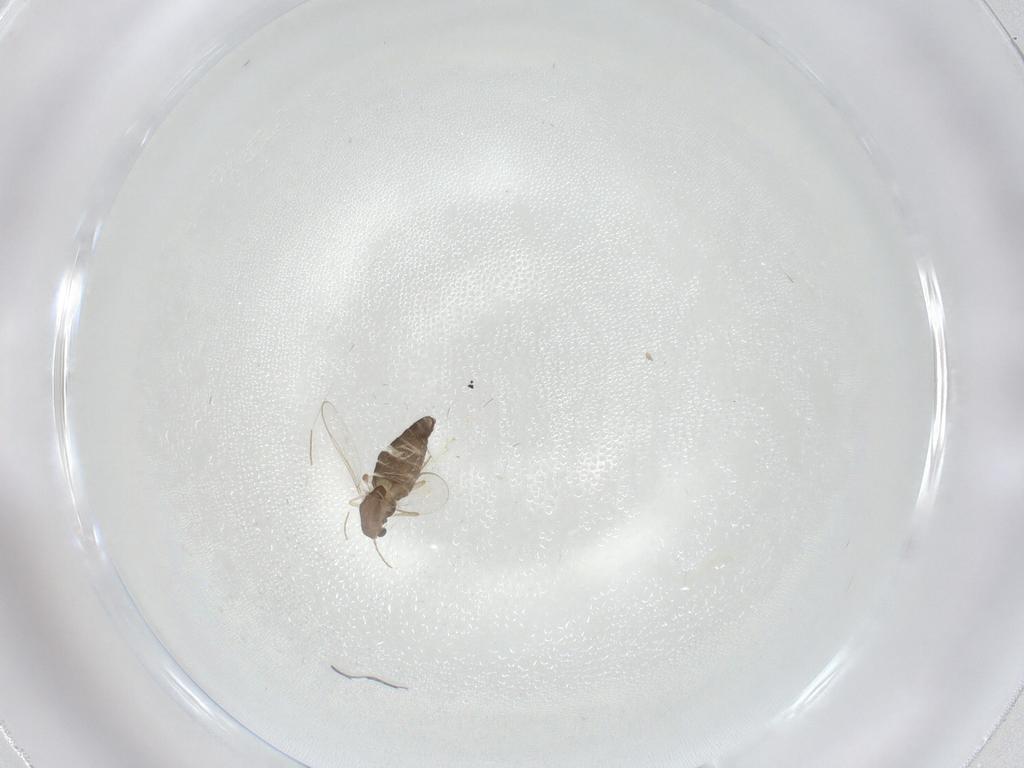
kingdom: Animalia
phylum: Arthropoda
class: Insecta
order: Diptera
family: Chironomidae
